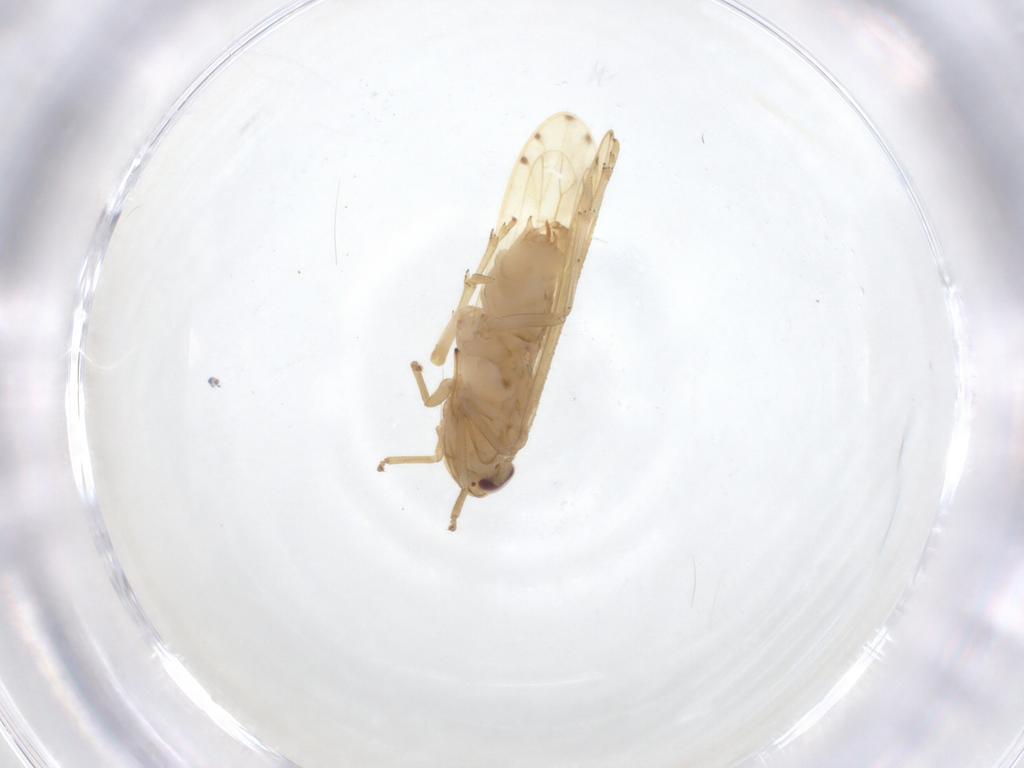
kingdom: Animalia
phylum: Arthropoda
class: Insecta
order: Hemiptera
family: Delphacidae
